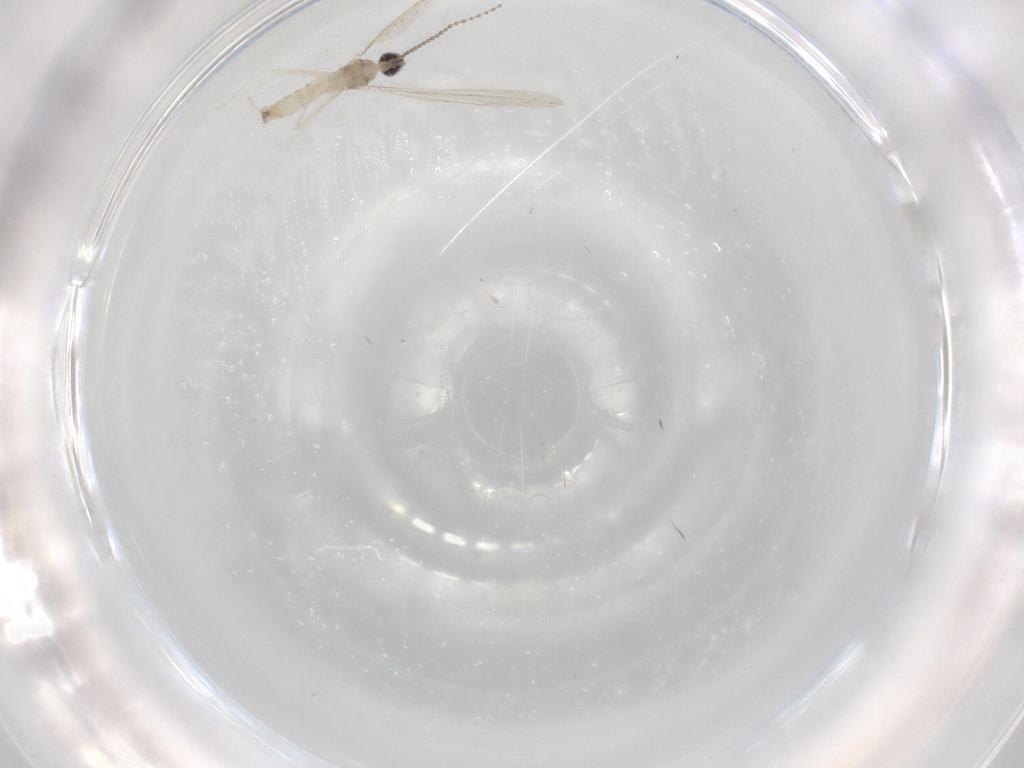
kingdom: Animalia
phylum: Arthropoda
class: Insecta
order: Diptera
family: Cecidomyiidae
